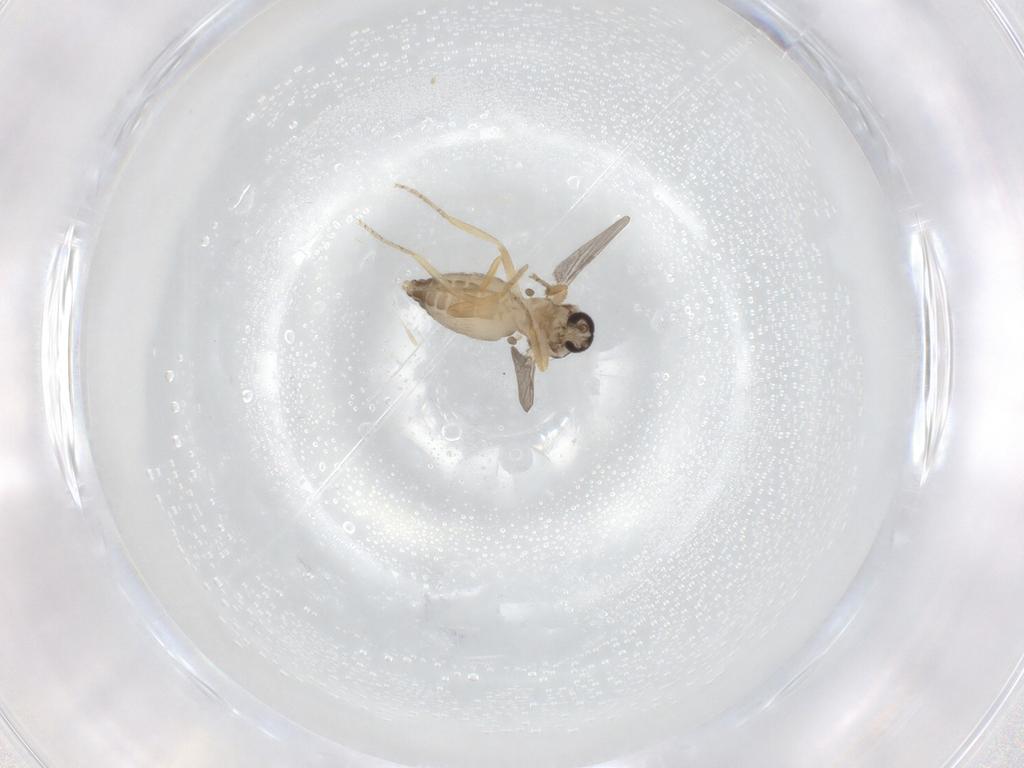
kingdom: Animalia
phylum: Arthropoda
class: Insecta
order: Diptera
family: Ceratopogonidae
